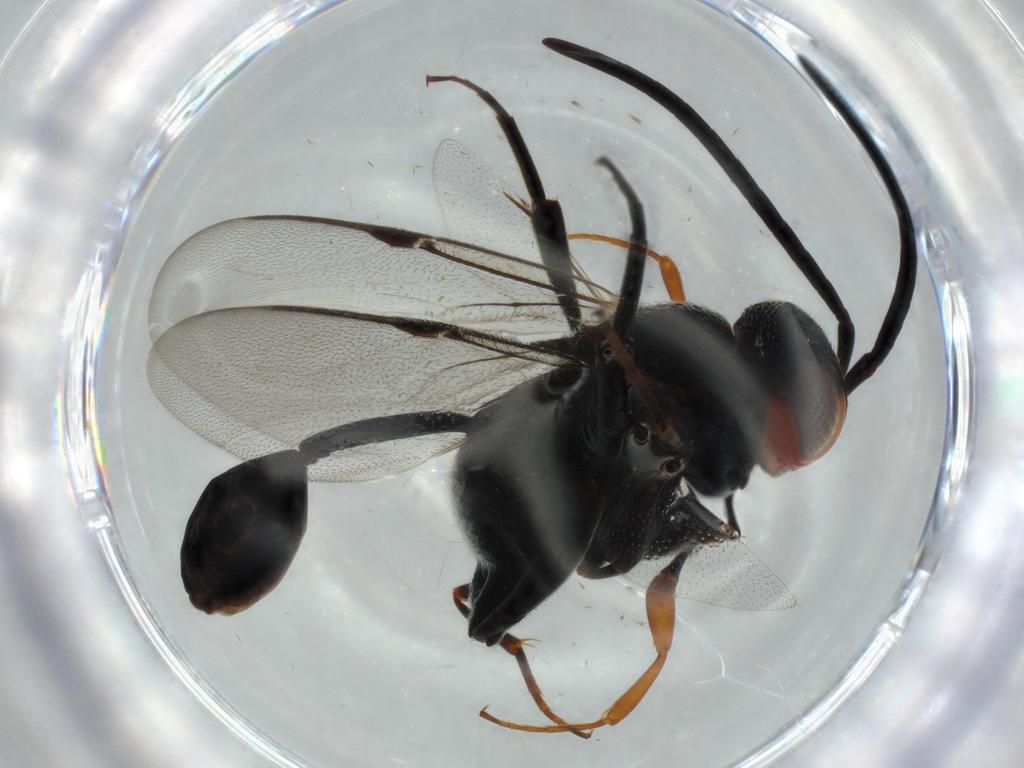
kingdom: Animalia
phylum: Arthropoda
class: Insecta
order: Hymenoptera
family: Evaniidae
